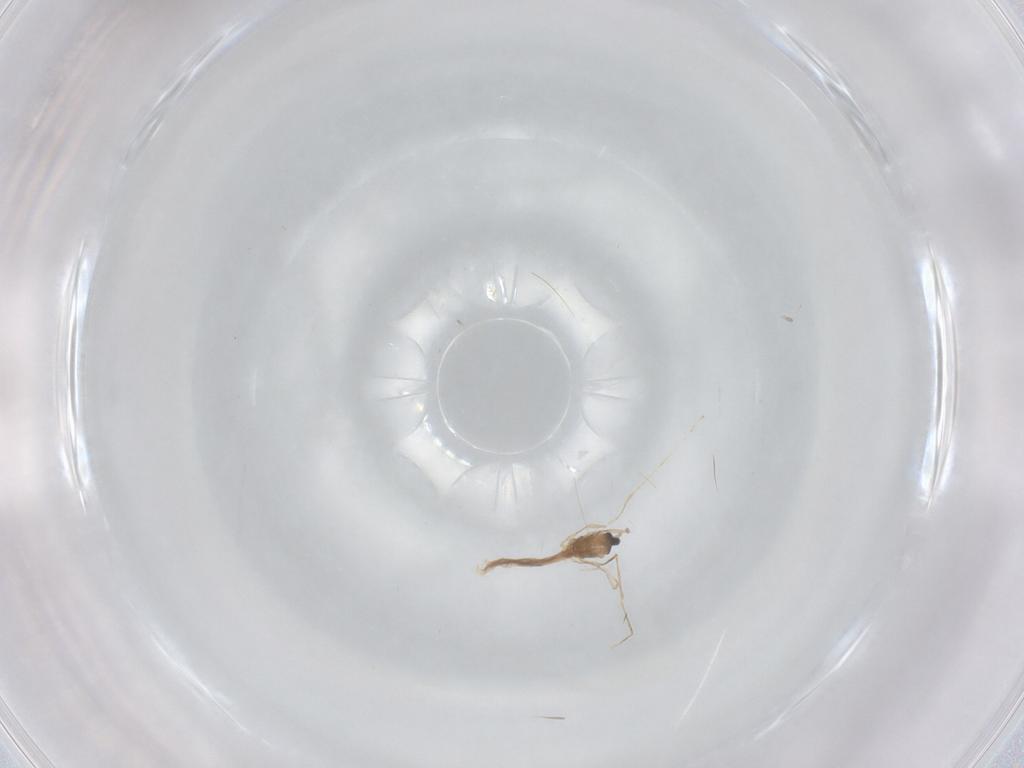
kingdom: Animalia
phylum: Arthropoda
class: Insecta
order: Diptera
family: Cecidomyiidae
